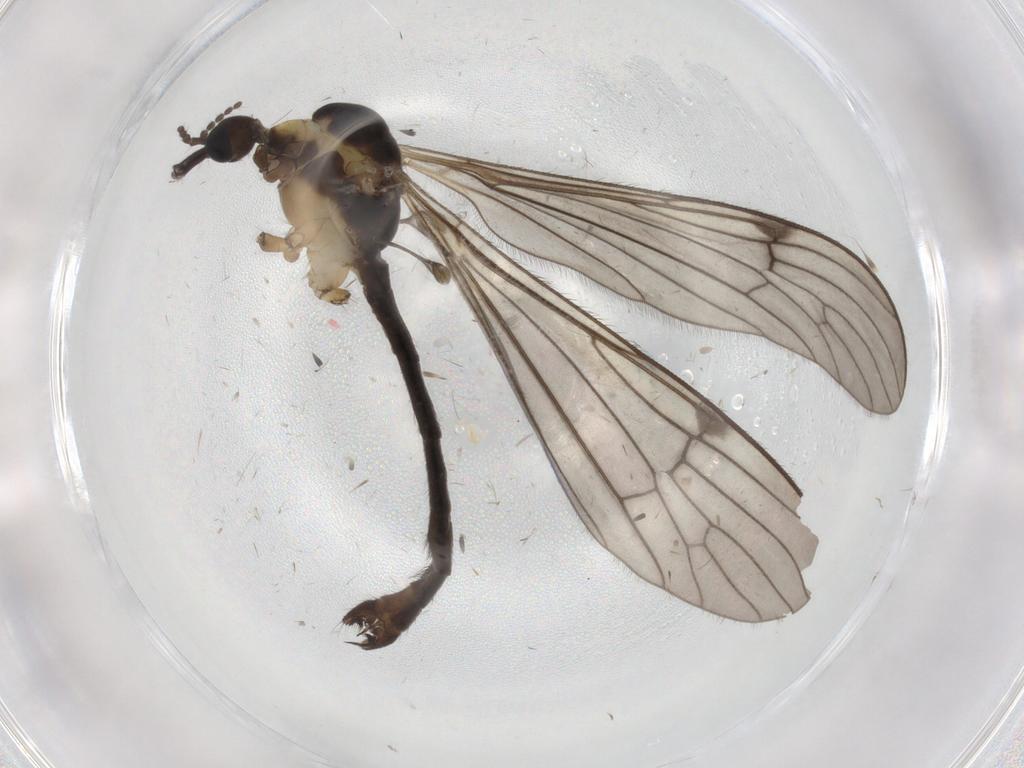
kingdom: Animalia
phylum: Arthropoda
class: Insecta
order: Diptera
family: Limoniidae
